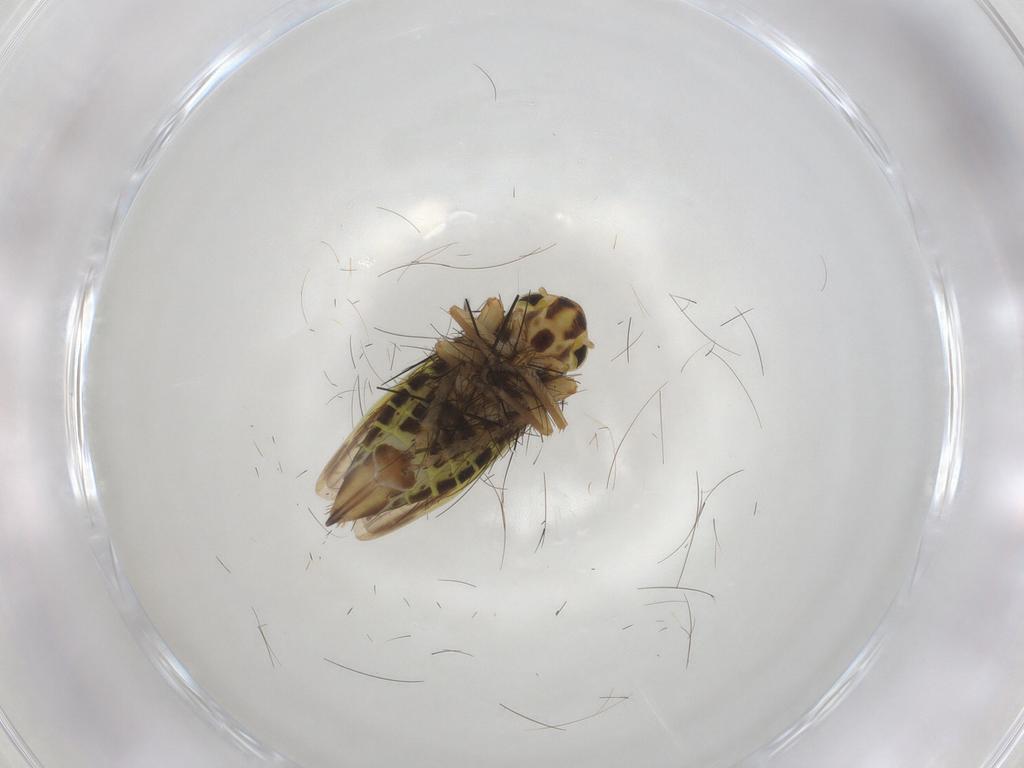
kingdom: Animalia
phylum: Arthropoda
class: Insecta
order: Hemiptera
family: Cicadellidae
